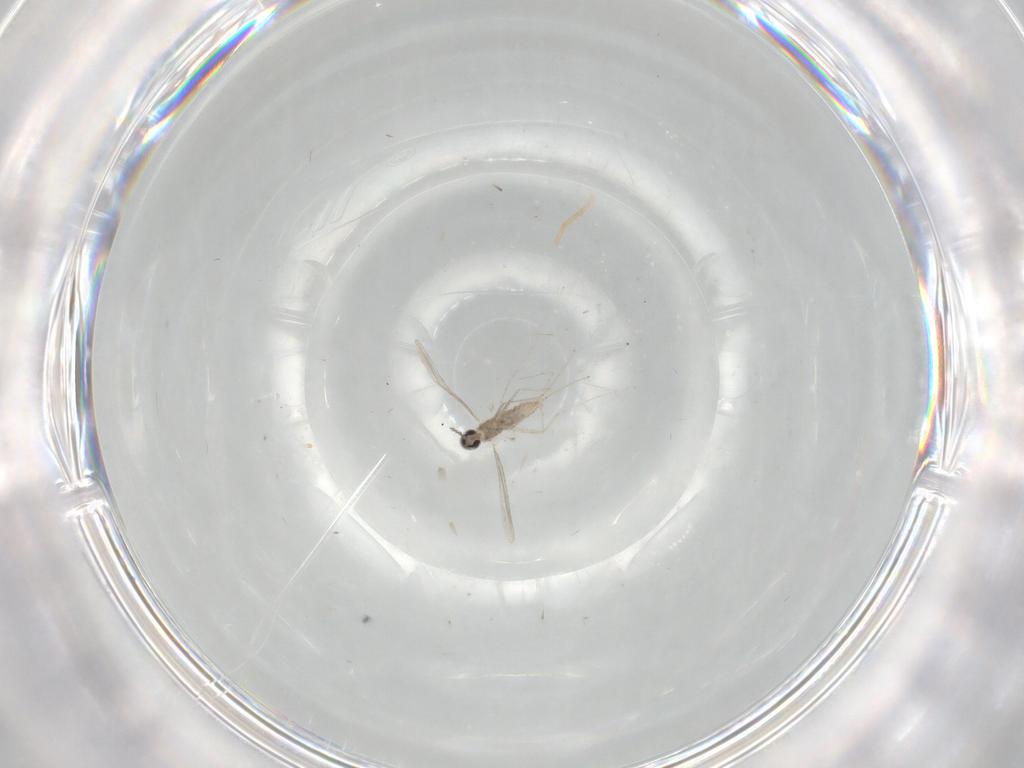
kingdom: Animalia
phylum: Arthropoda
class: Insecta
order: Diptera
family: Cecidomyiidae
